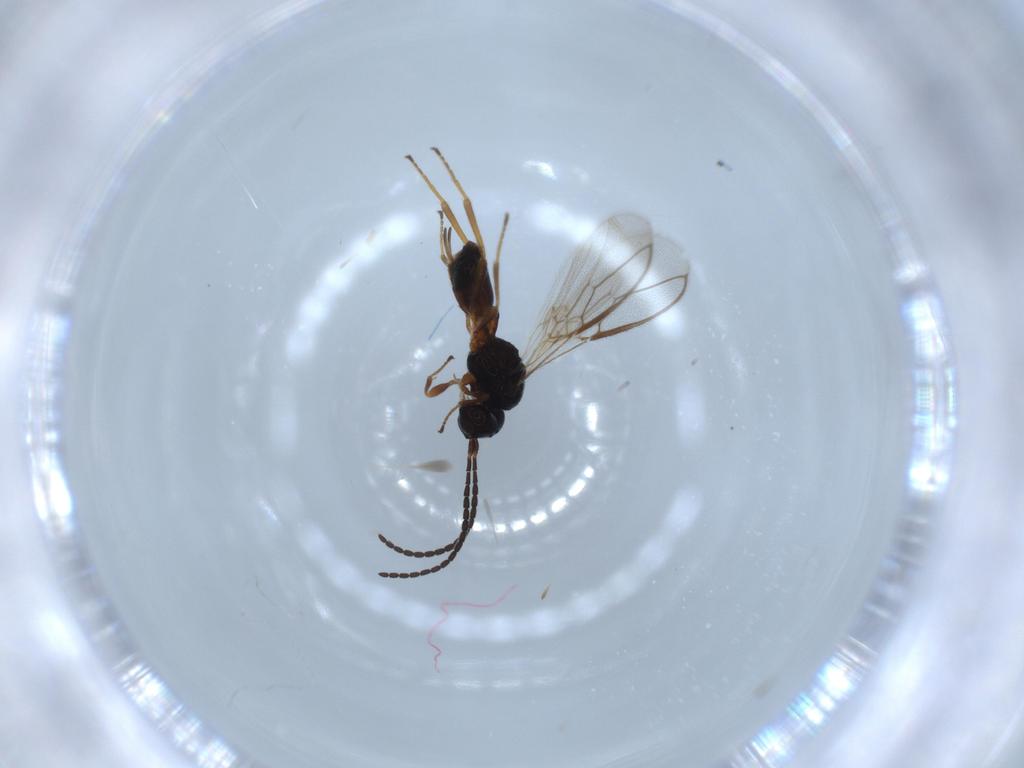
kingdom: Animalia
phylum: Arthropoda
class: Insecta
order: Hymenoptera
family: Braconidae
